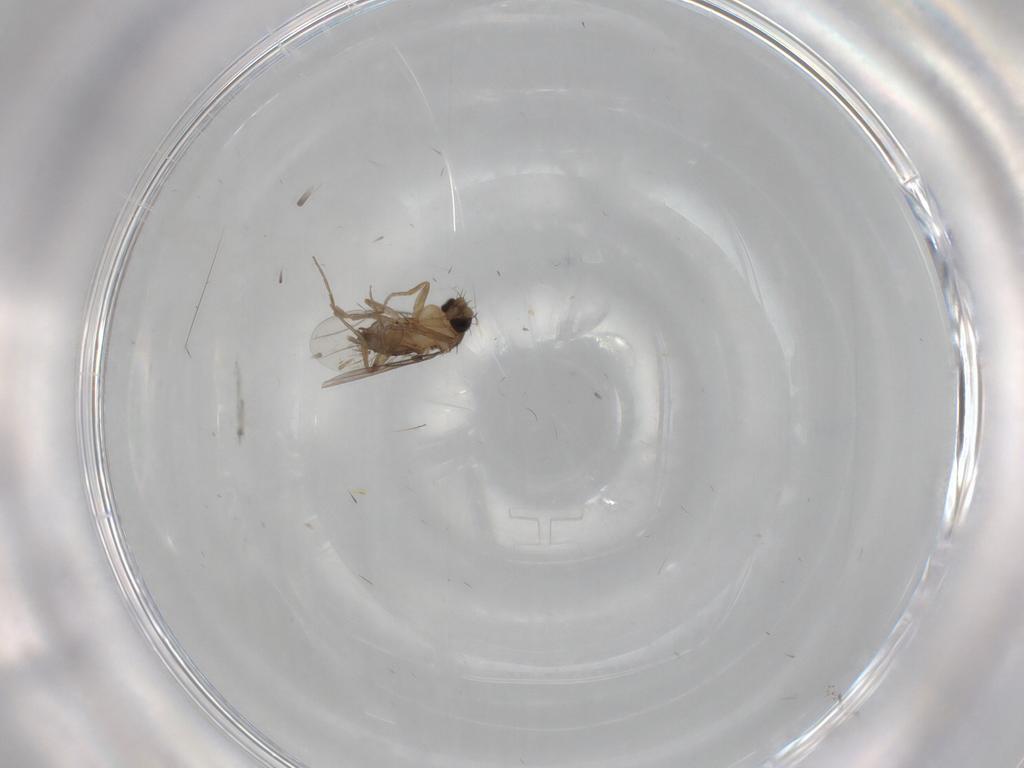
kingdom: Animalia
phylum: Arthropoda
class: Insecta
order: Diptera
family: Phoridae
